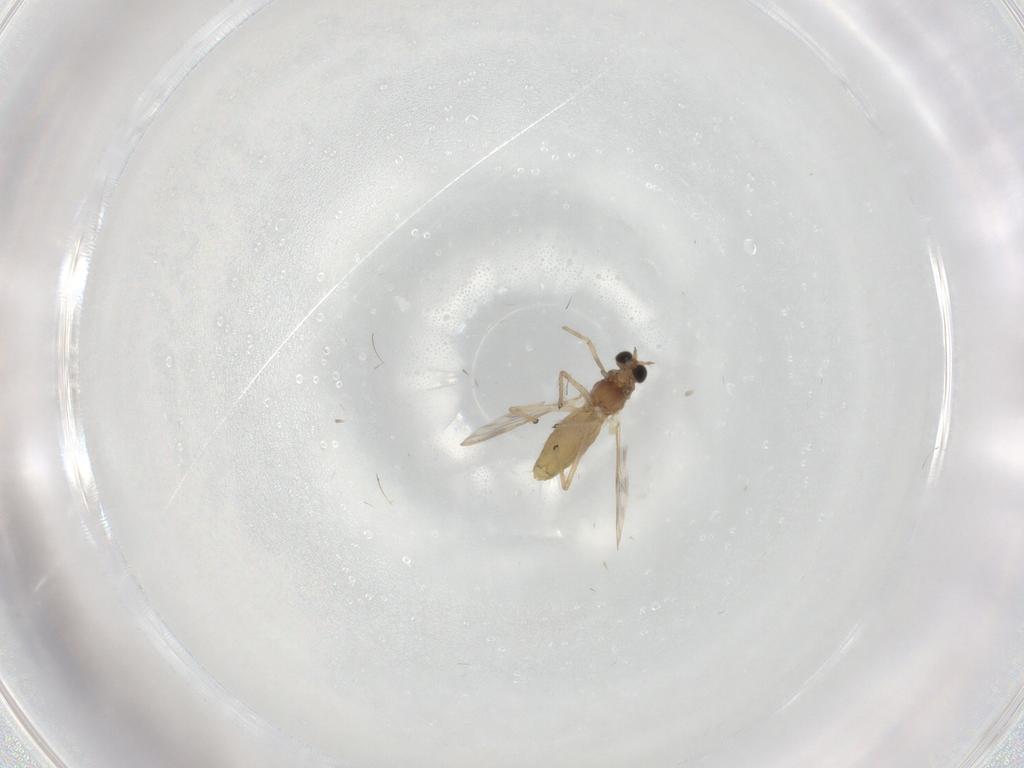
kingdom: Animalia
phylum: Arthropoda
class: Insecta
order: Diptera
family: Chironomidae
